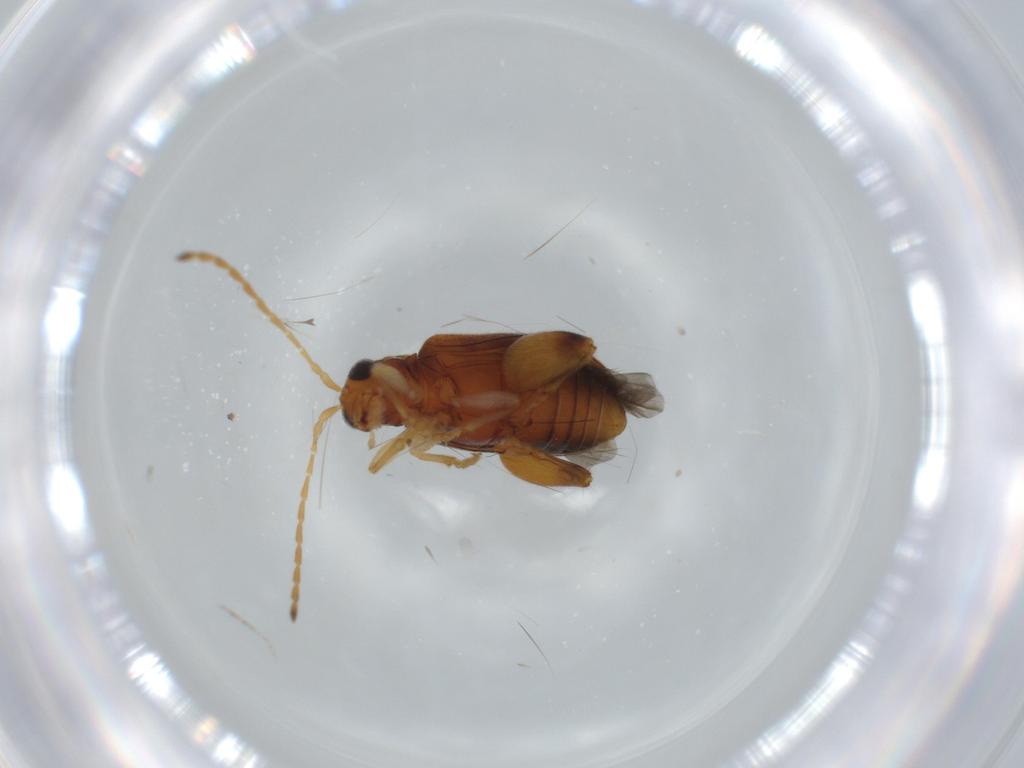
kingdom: Animalia
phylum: Arthropoda
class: Insecta
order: Coleoptera
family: Chrysomelidae
